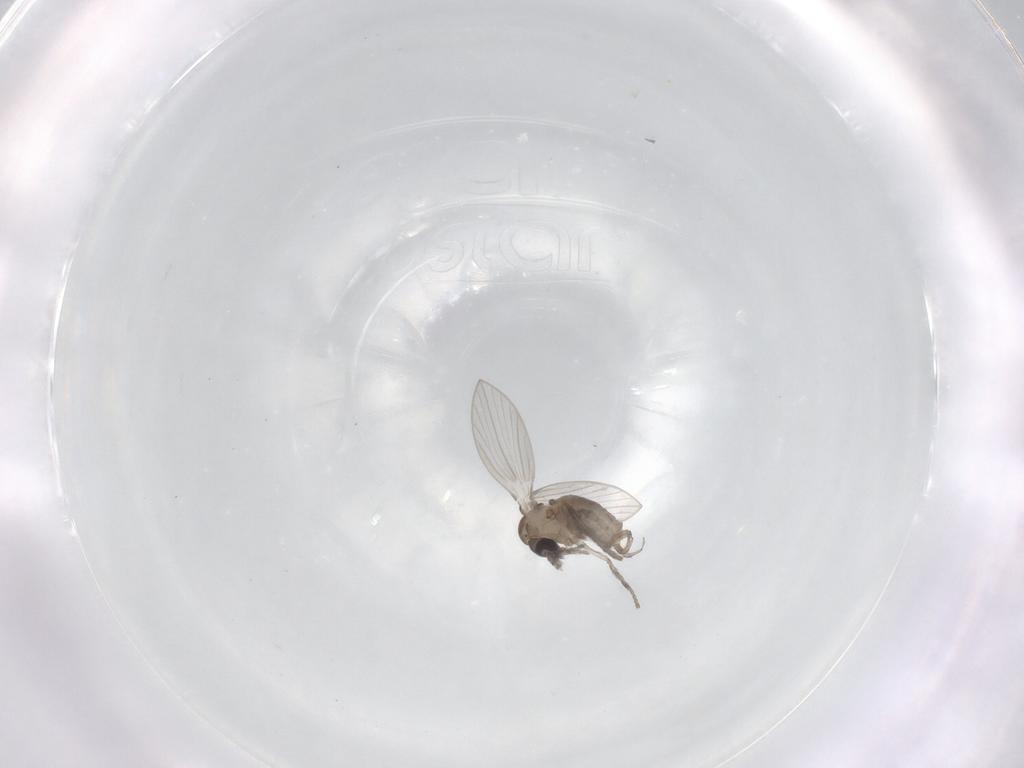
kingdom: Animalia
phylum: Arthropoda
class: Insecta
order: Diptera
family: Psychodidae
